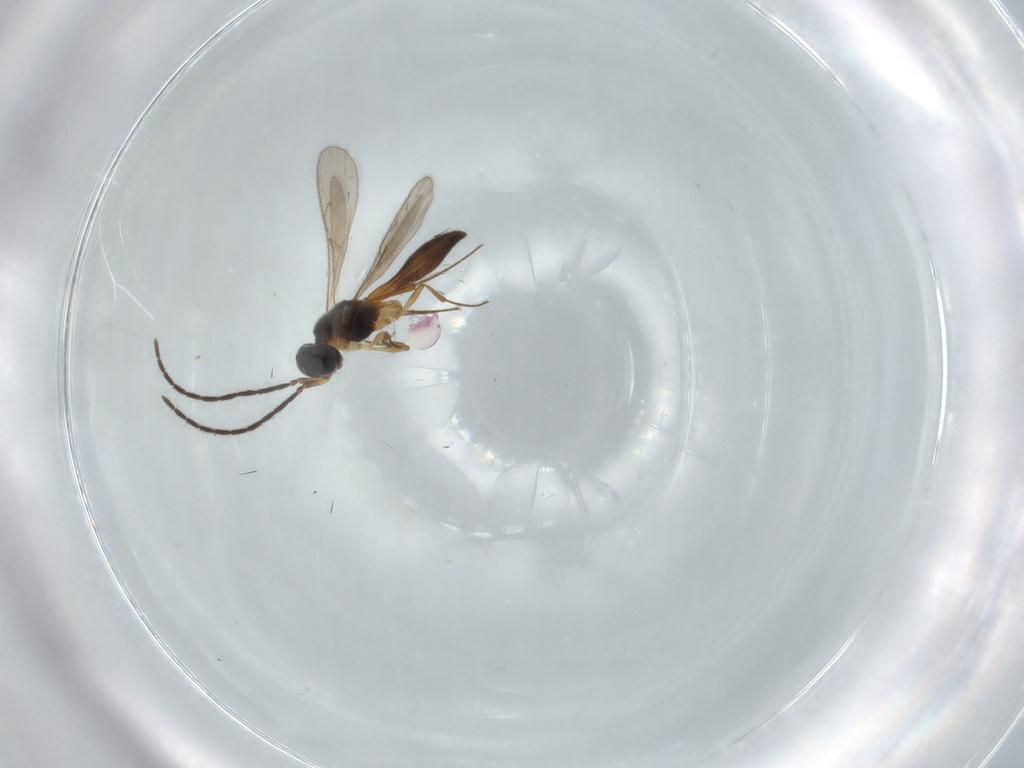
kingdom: Animalia
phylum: Arthropoda
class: Insecta
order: Hymenoptera
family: Scelionidae
